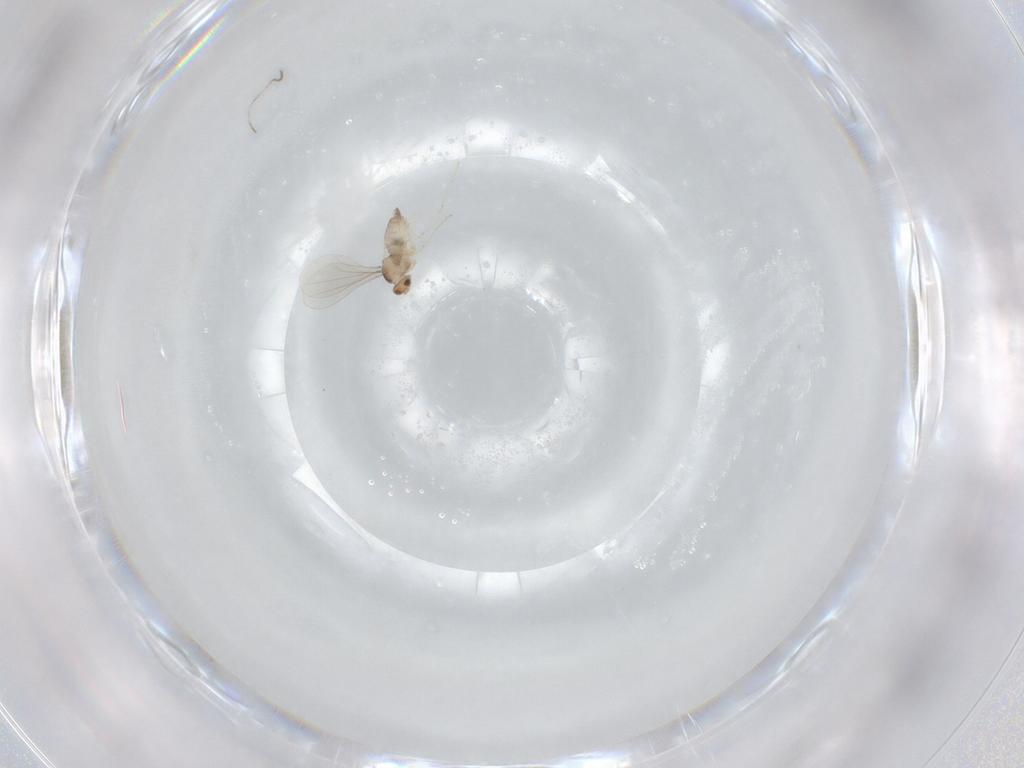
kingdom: Animalia
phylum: Arthropoda
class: Insecta
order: Diptera
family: Cecidomyiidae
